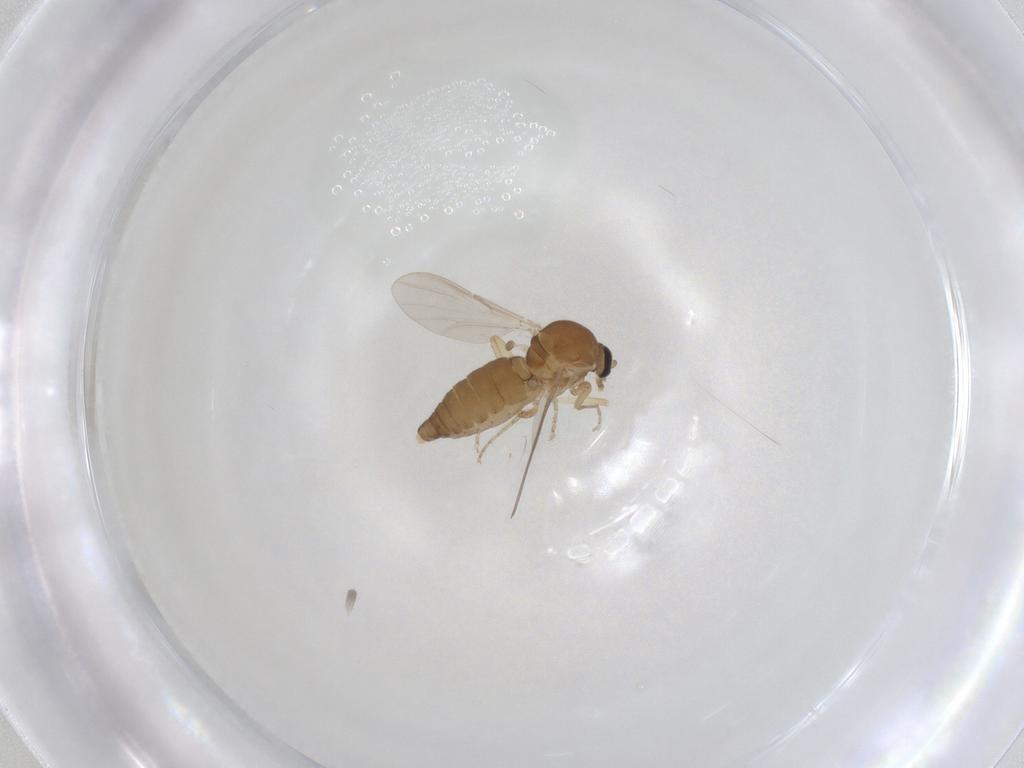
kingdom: Animalia
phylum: Arthropoda
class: Insecta
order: Diptera
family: Ceratopogonidae
